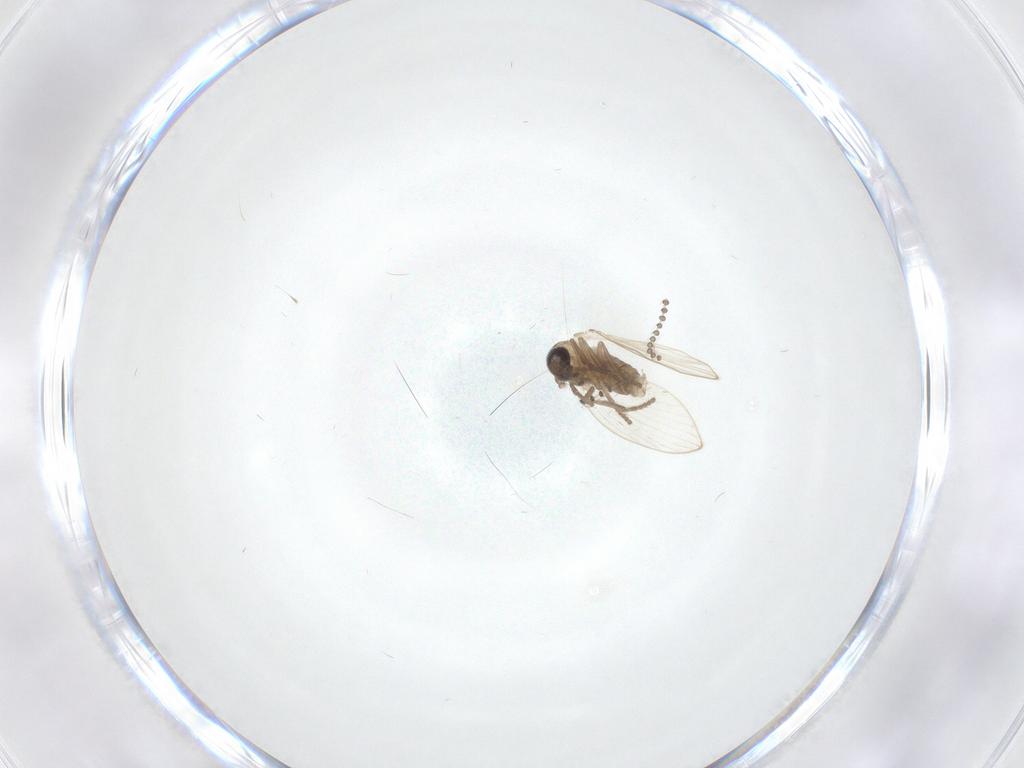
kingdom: Animalia
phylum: Arthropoda
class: Insecta
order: Diptera
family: Psychodidae
